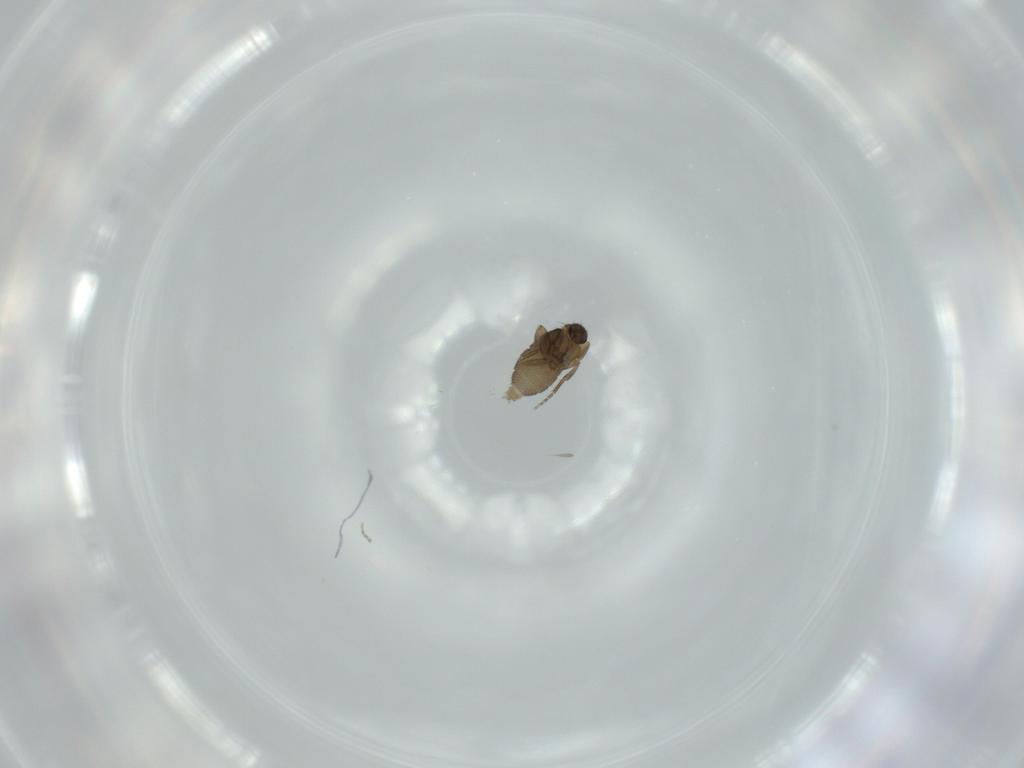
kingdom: Animalia
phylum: Arthropoda
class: Insecta
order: Diptera
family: Phoridae
